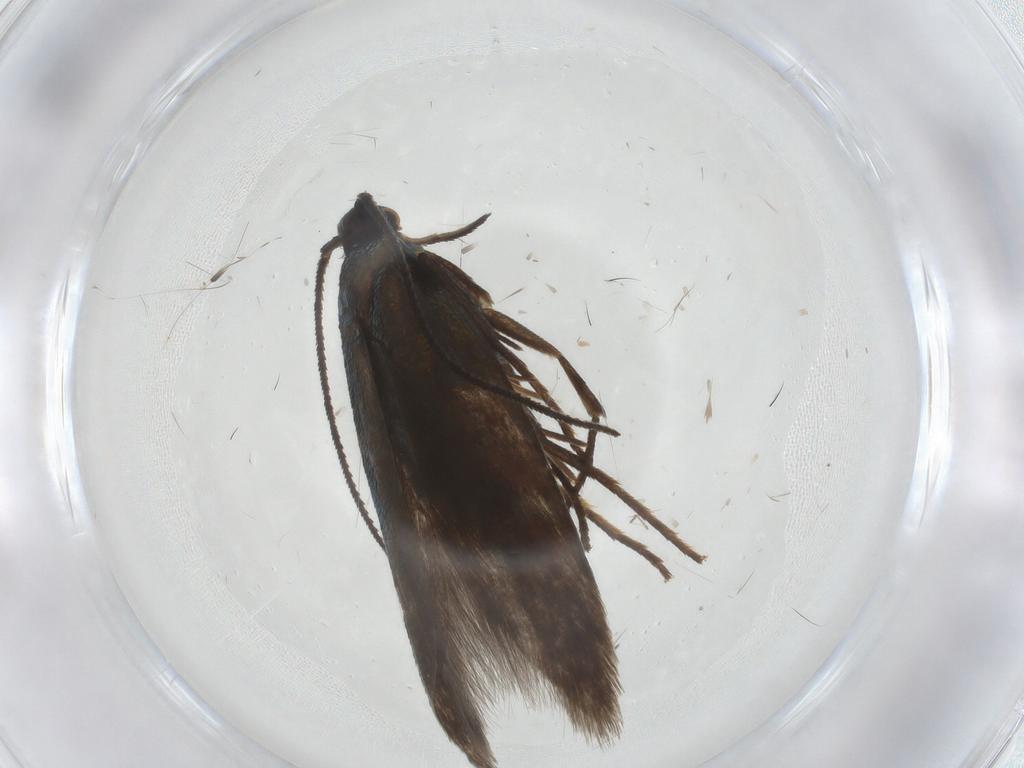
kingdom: Animalia
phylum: Arthropoda
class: Insecta
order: Lepidoptera
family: Argyresthiidae
